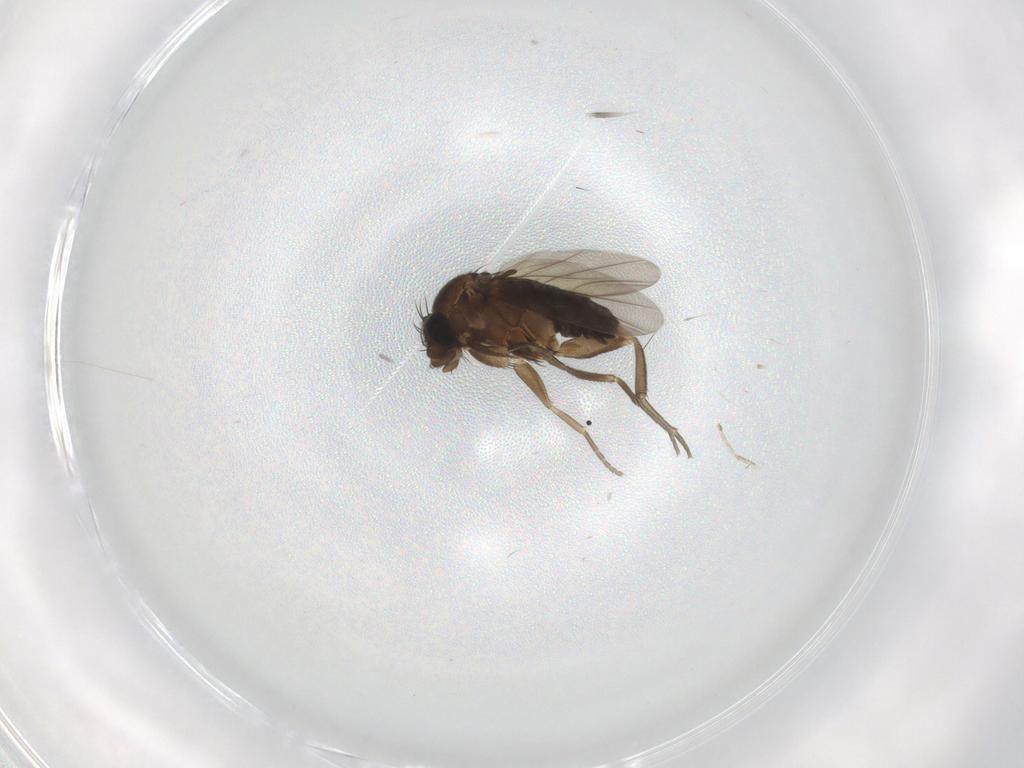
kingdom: Animalia
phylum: Arthropoda
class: Insecta
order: Diptera
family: Phoridae
